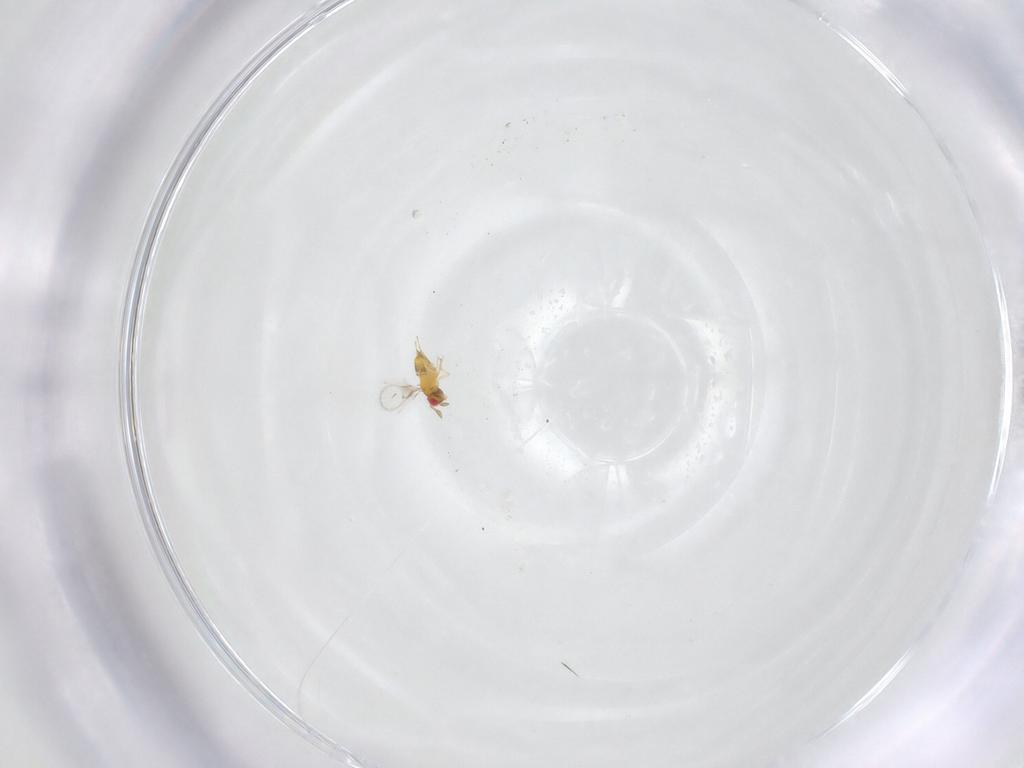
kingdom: Animalia
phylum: Arthropoda
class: Insecta
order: Hymenoptera
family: Trichogrammatidae
